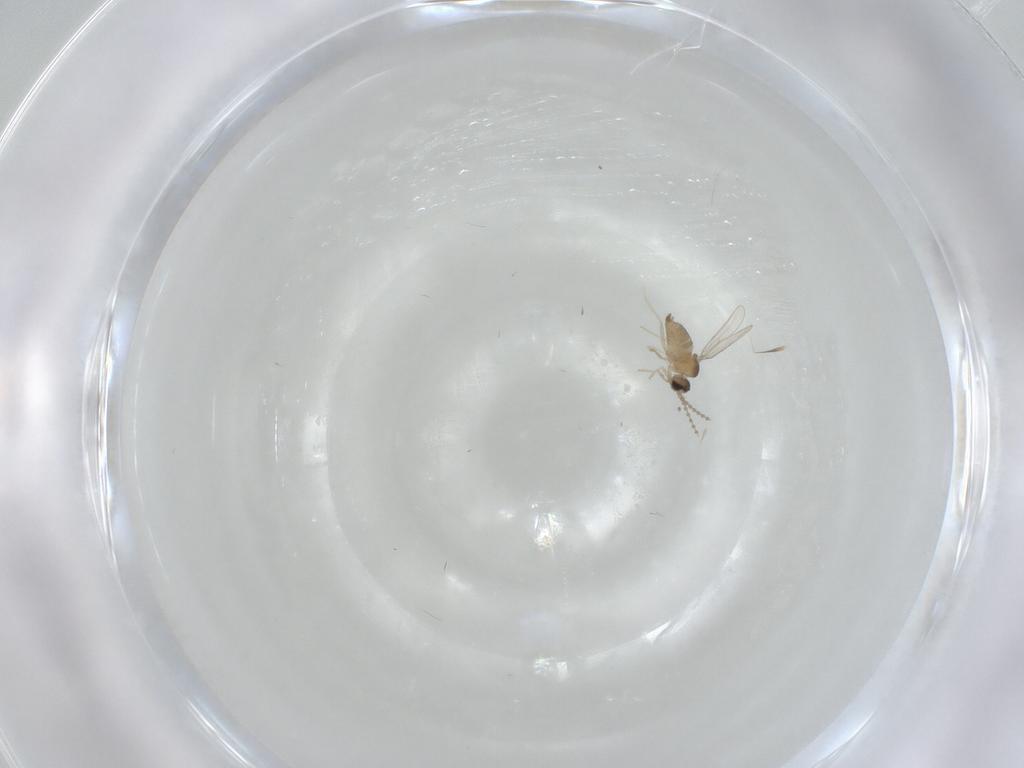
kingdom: Animalia
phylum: Arthropoda
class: Insecta
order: Diptera
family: Cecidomyiidae
